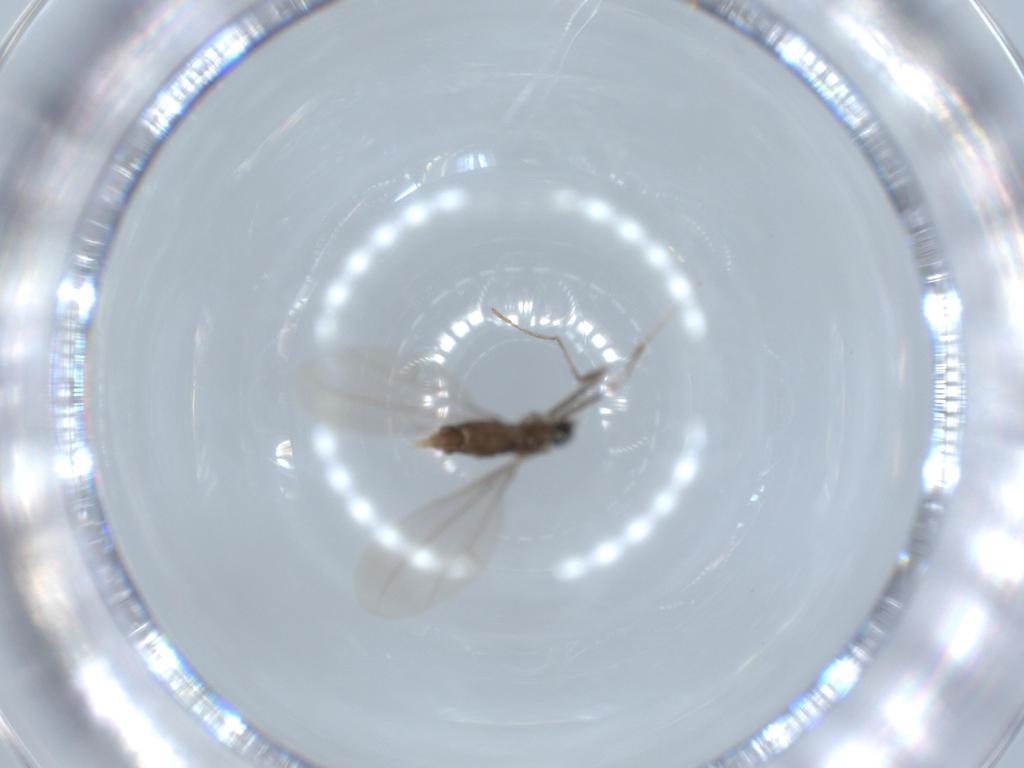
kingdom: Animalia
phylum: Arthropoda
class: Insecta
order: Diptera
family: Cecidomyiidae
